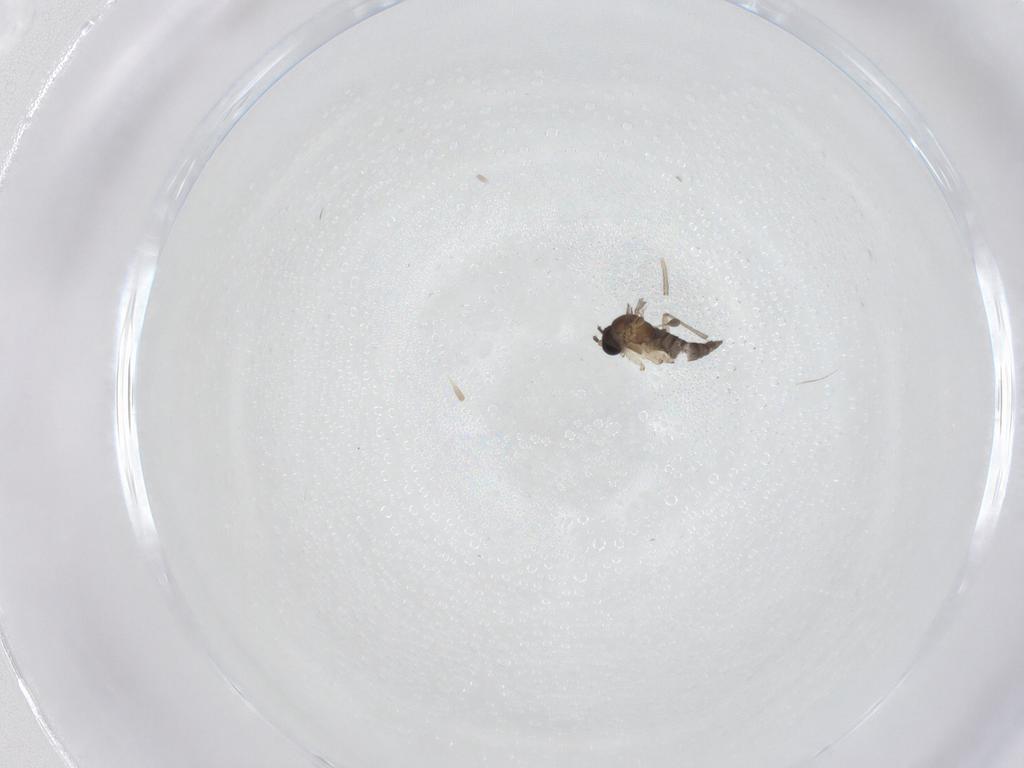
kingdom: Animalia
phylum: Arthropoda
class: Insecta
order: Diptera
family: Sciaridae
